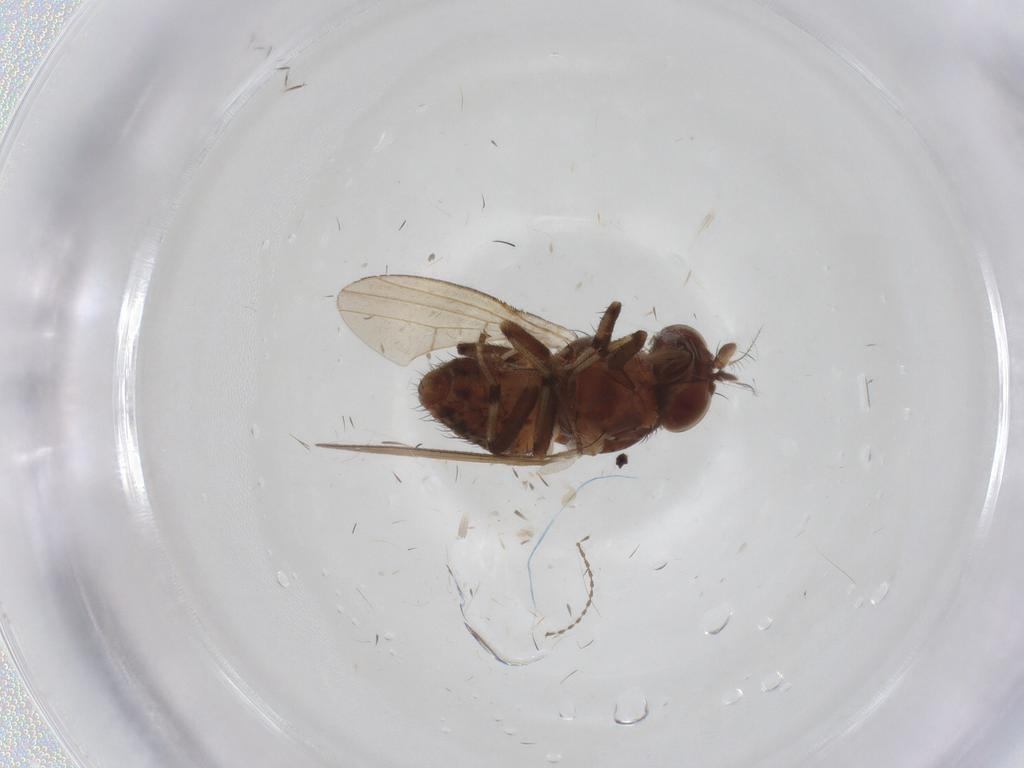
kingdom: Animalia
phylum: Arthropoda
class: Insecta
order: Diptera
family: Ceratopogonidae
